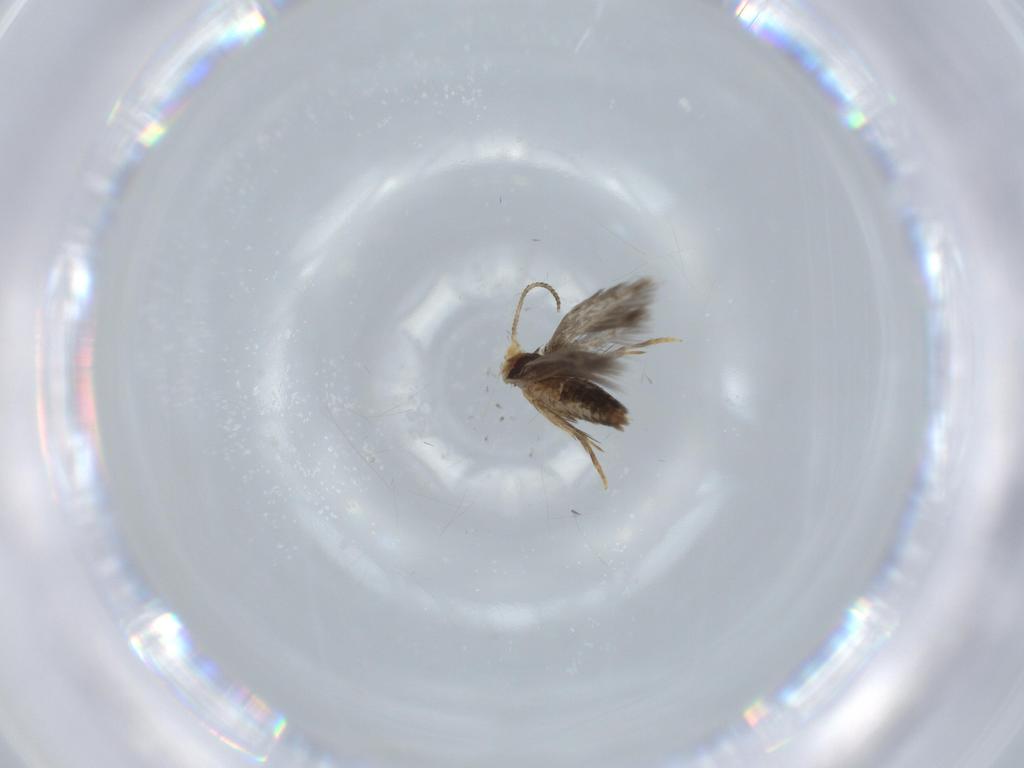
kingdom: Animalia
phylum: Arthropoda
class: Insecta
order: Lepidoptera
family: Nepticulidae
